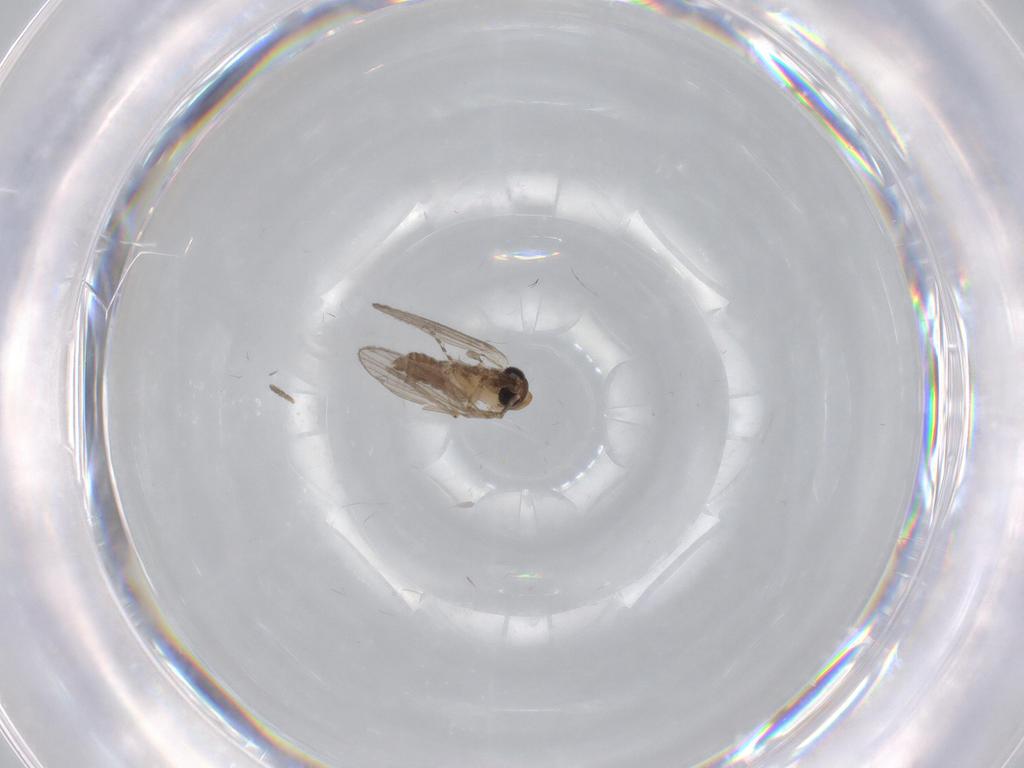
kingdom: Animalia
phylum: Arthropoda
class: Insecta
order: Diptera
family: Psychodidae
